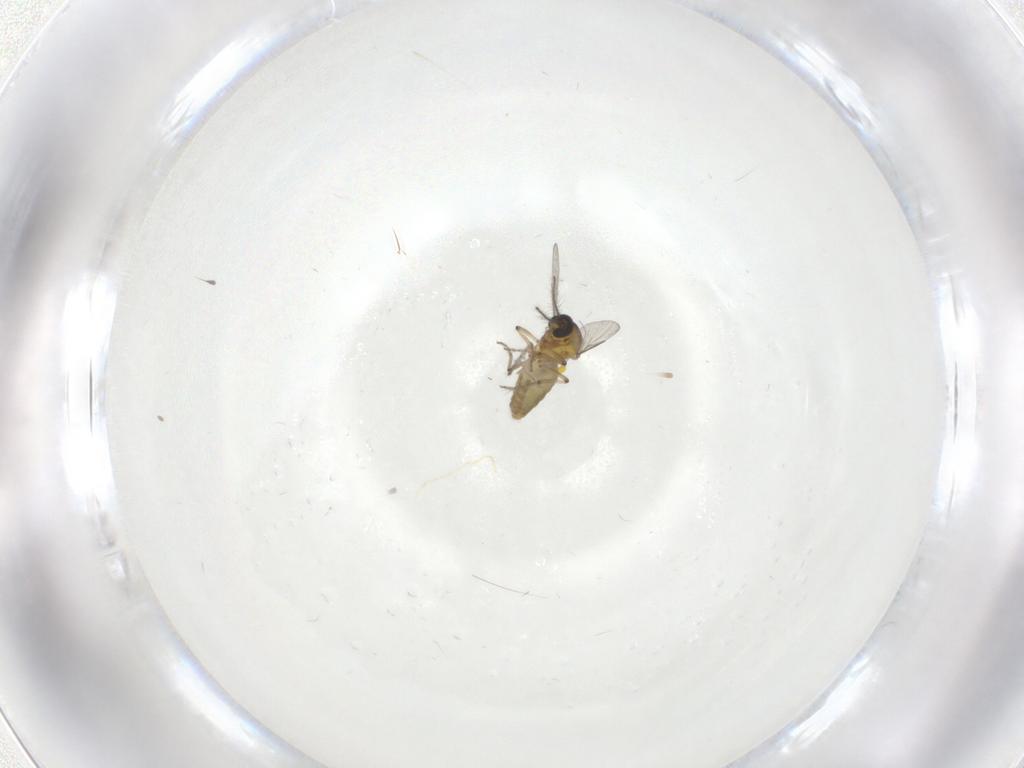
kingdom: Animalia
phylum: Arthropoda
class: Insecta
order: Diptera
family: Ceratopogonidae
